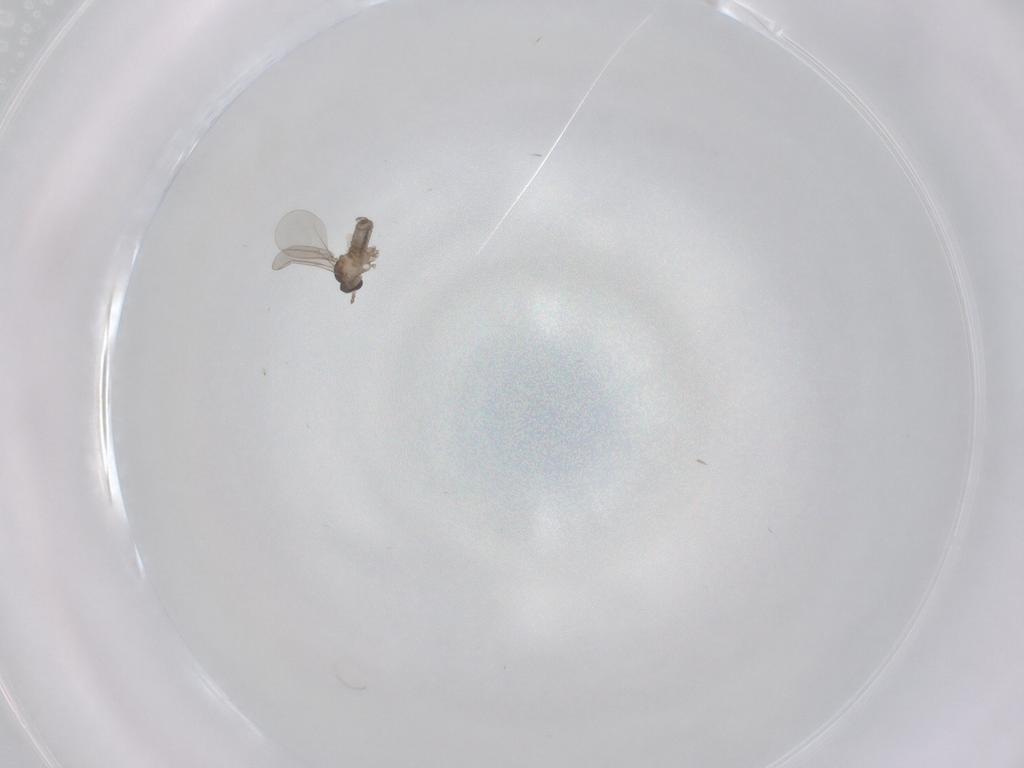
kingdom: Animalia
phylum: Arthropoda
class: Insecta
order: Diptera
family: Cecidomyiidae
